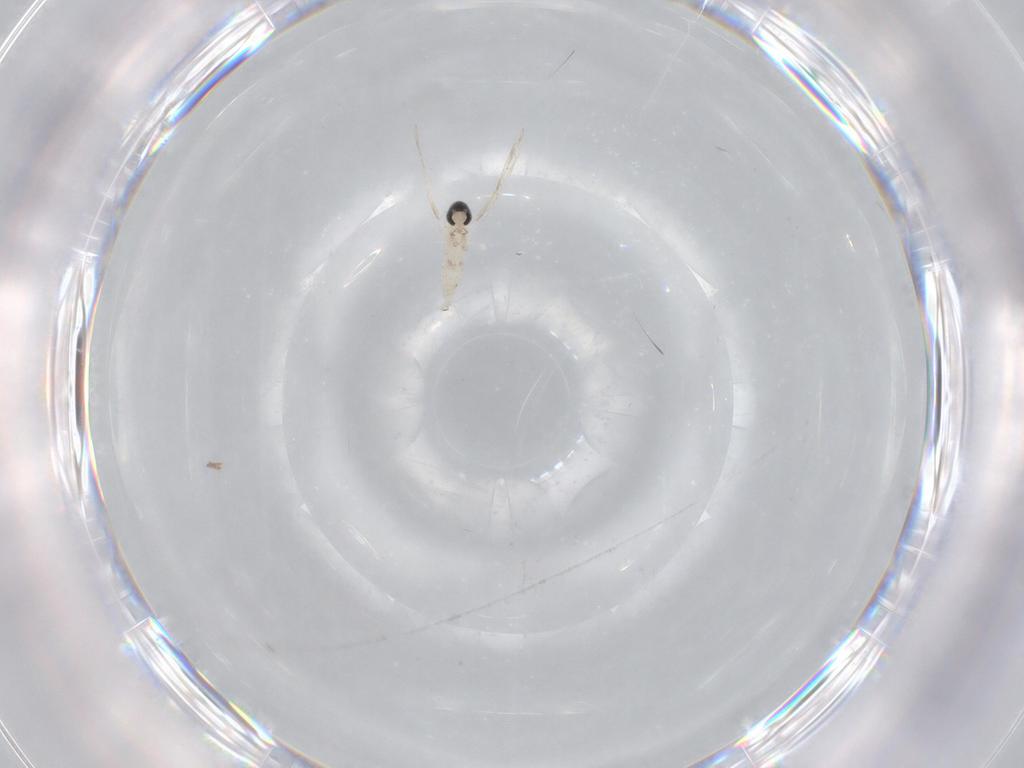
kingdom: Animalia
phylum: Arthropoda
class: Insecta
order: Diptera
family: Cecidomyiidae
